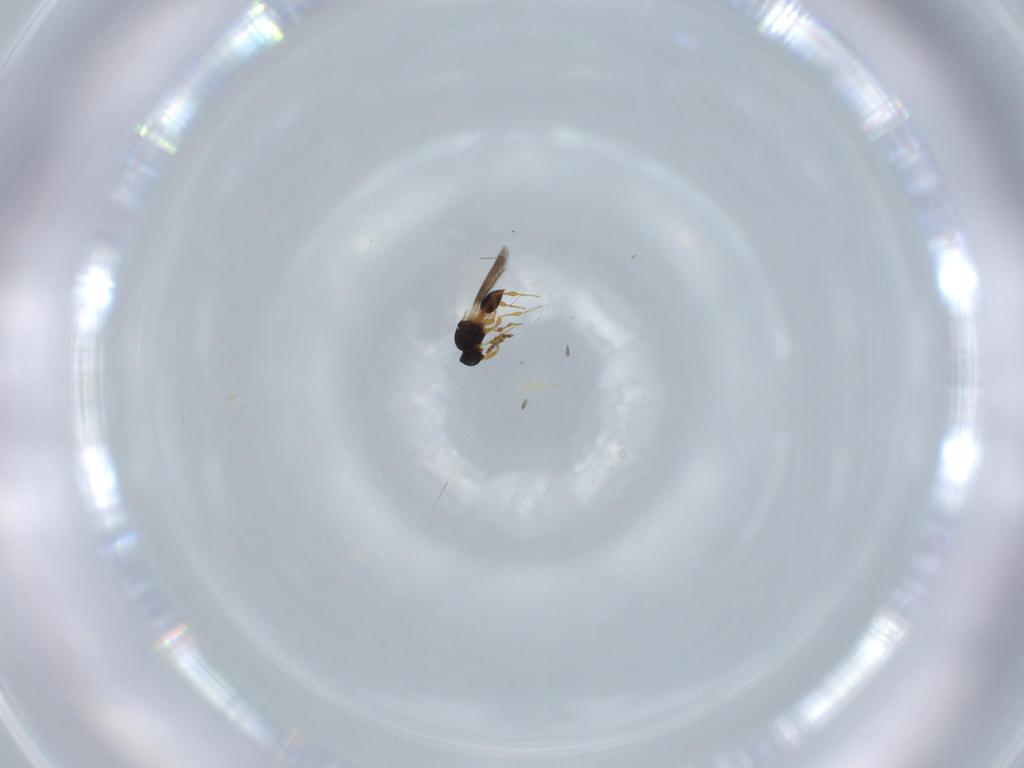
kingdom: Animalia
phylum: Arthropoda
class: Insecta
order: Hymenoptera
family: Platygastridae
